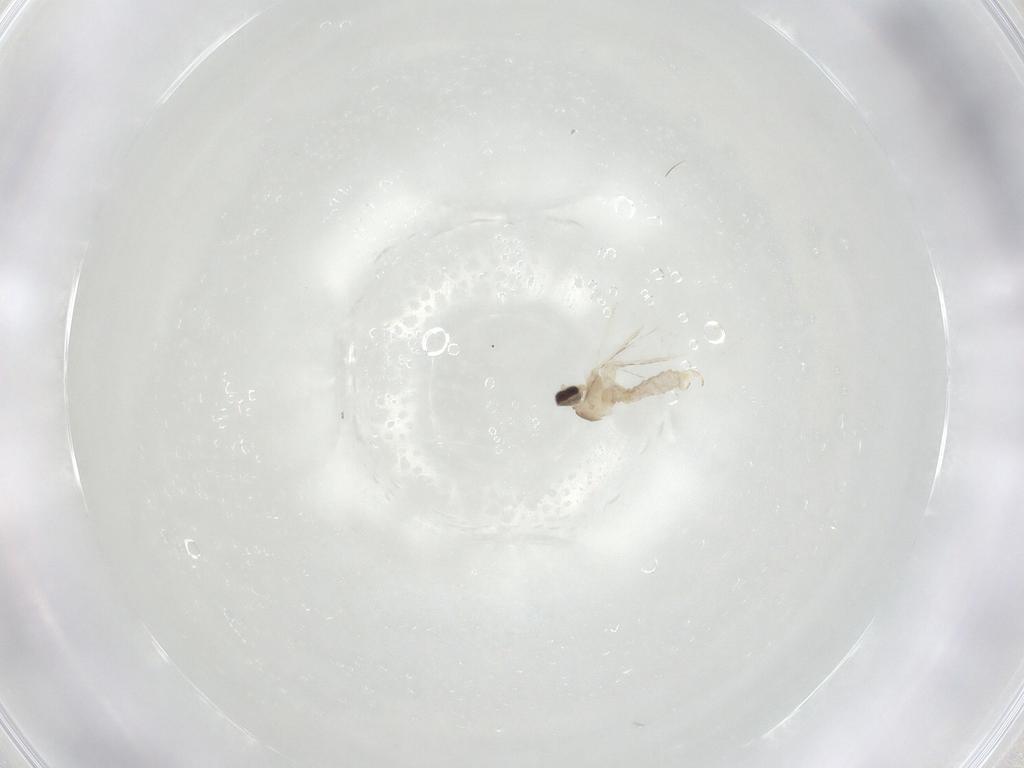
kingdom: Animalia
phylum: Arthropoda
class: Insecta
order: Diptera
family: Cecidomyiidae
